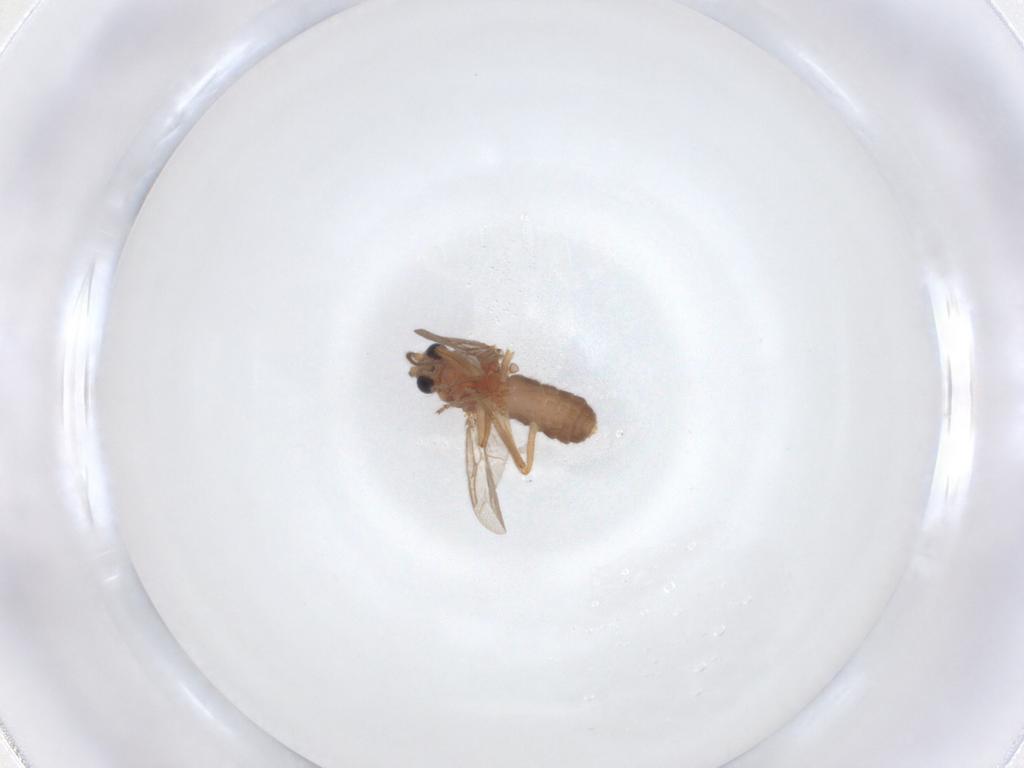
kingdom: Animalia
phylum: Arthropoda
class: Insecta
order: Diptera
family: Ceratopogonidae
